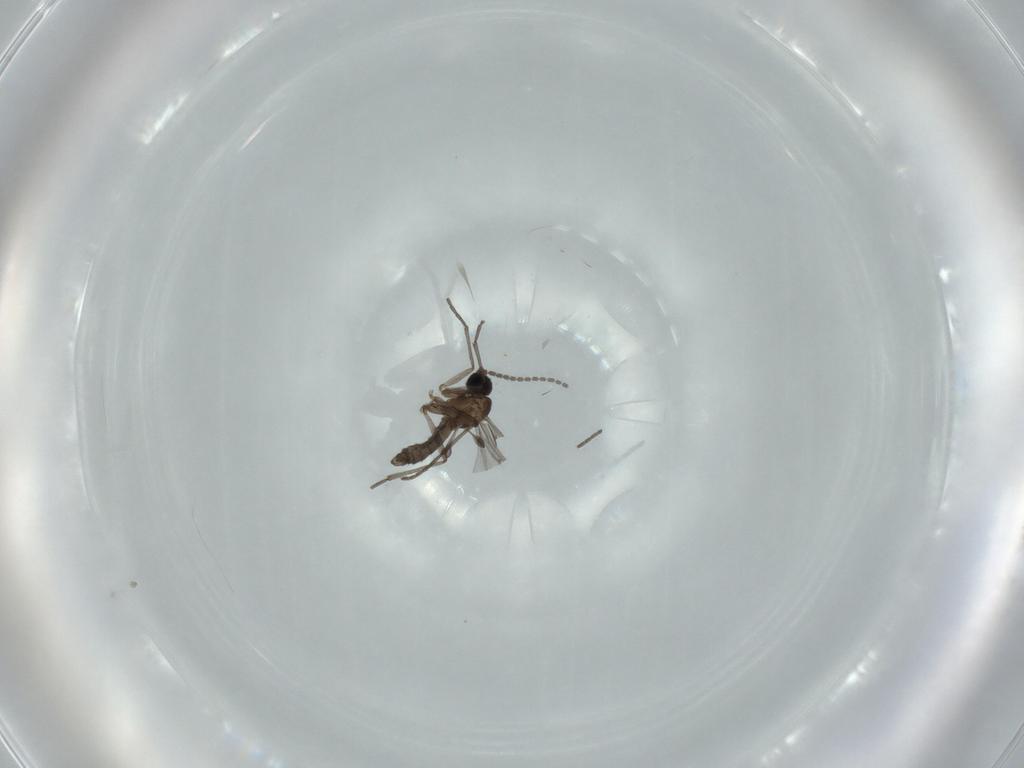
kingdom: Animalia
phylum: Arthropoda
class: Insecta
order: Diptera
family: Sciaridae
